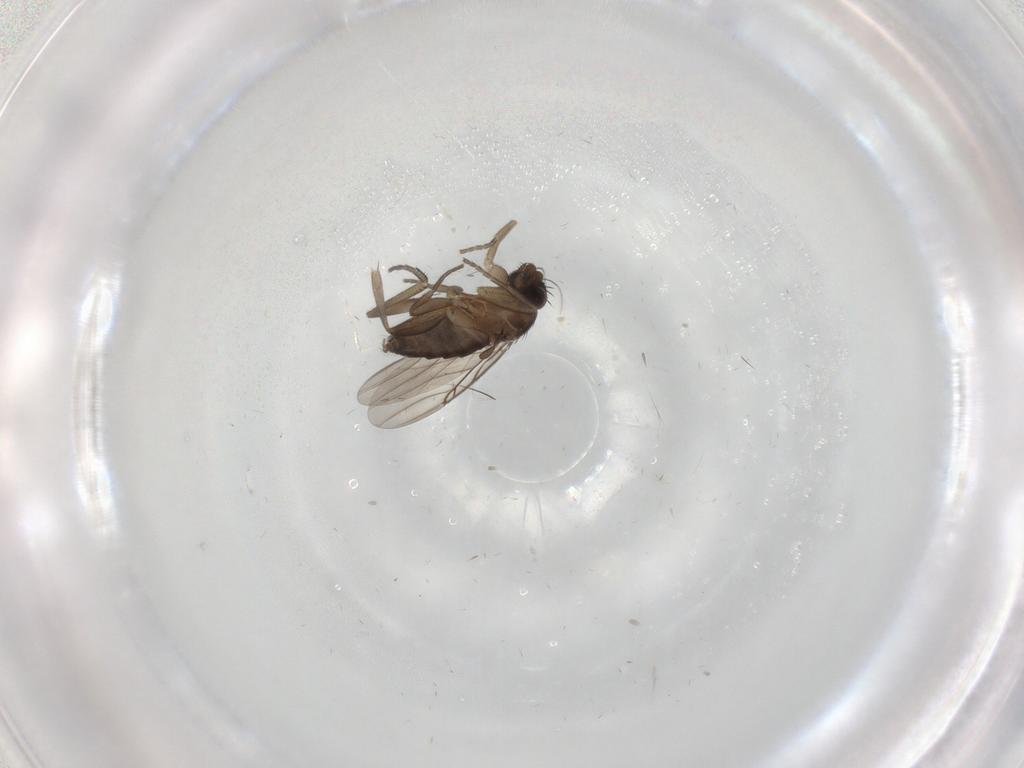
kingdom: Animalia
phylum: Arthropoda
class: Insecta
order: Diptera
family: Phoridae
